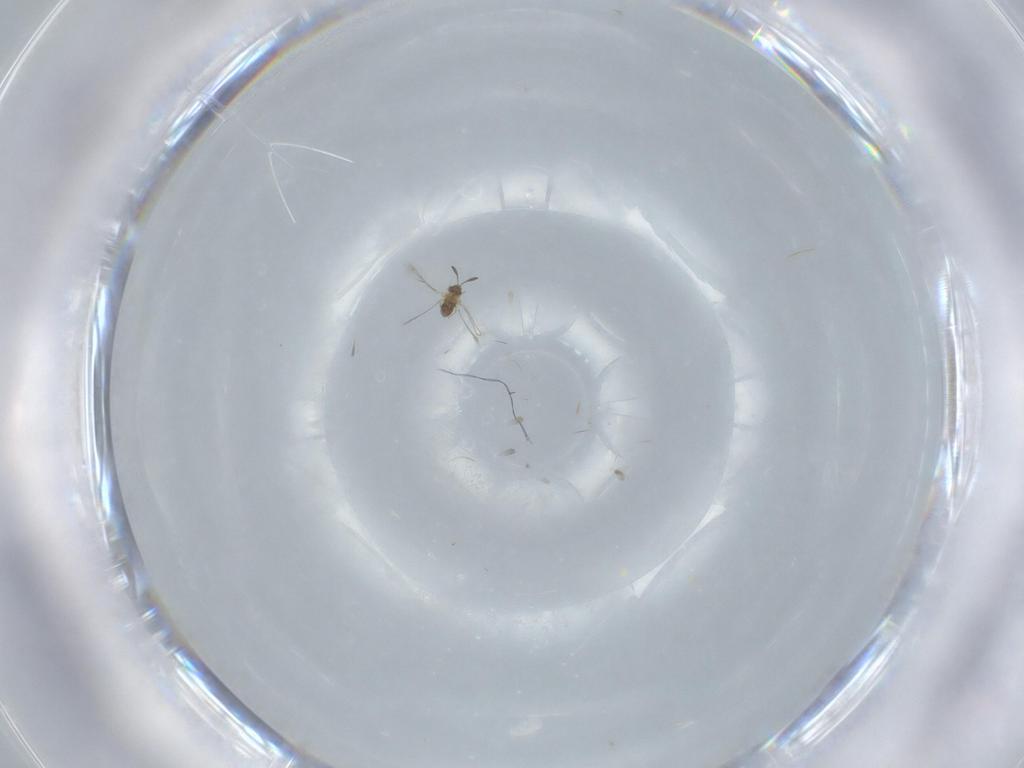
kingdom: Animalia
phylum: Arthropoda
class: Insecta
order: Hymenoptera
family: Mymaridae
